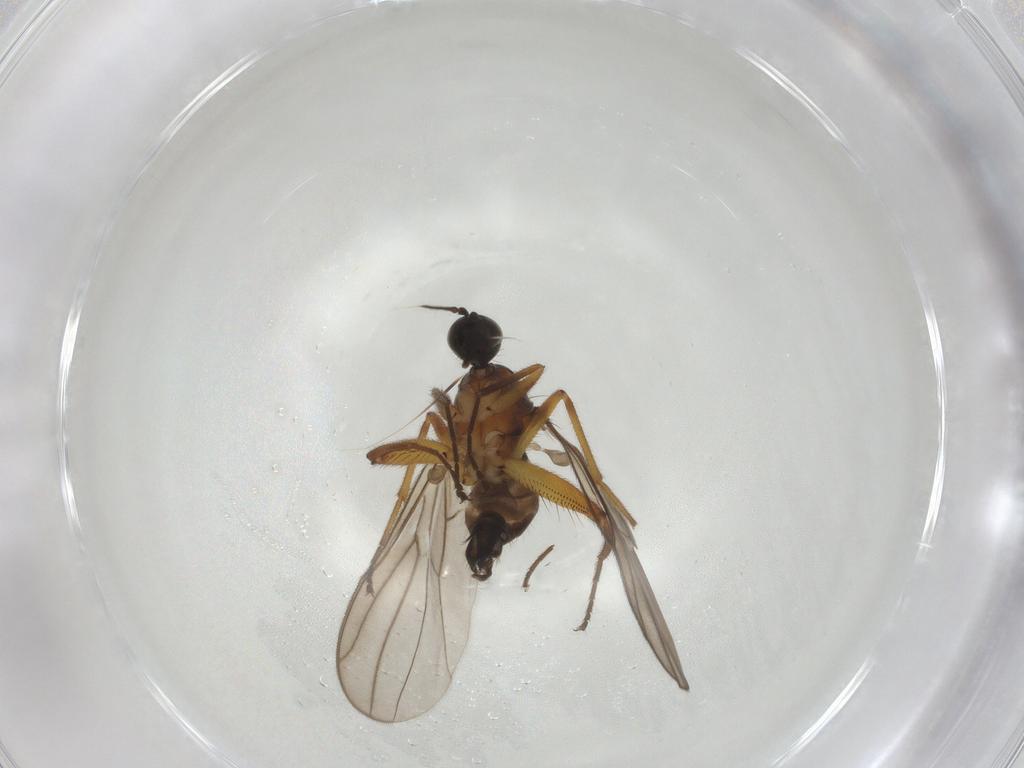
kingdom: Animalia
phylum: Arthropoda
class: Insecta
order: Diptera
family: Hybotidae
